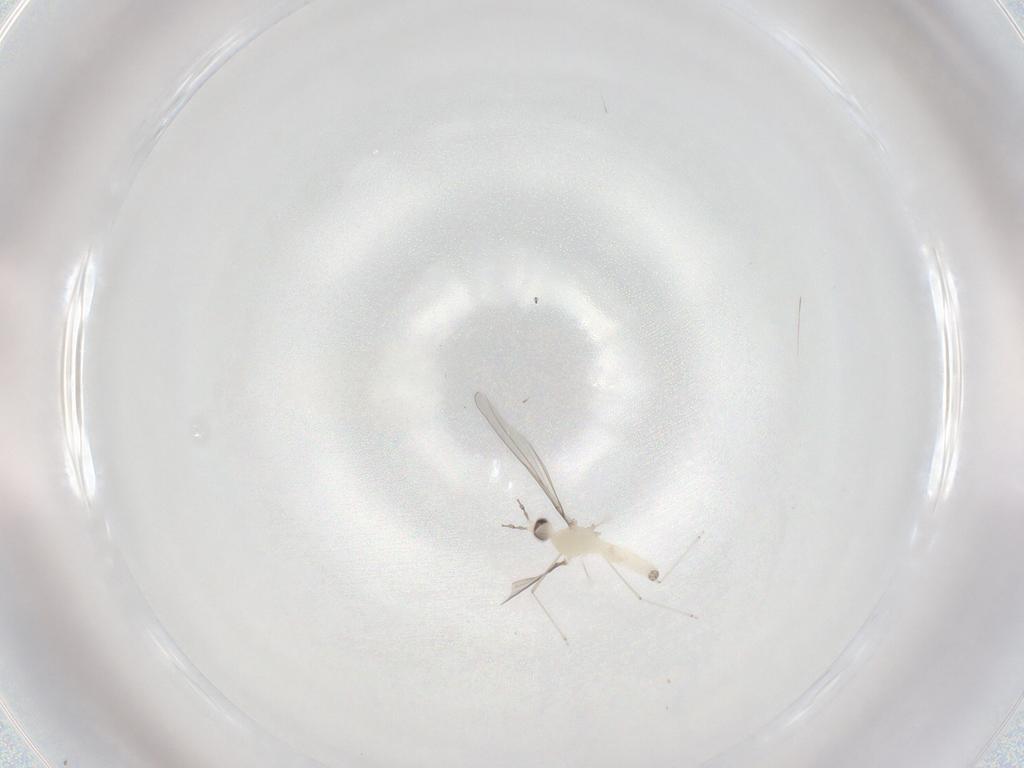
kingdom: Animalia
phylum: Arthropoda
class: Insecta
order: Diptera
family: Cecidomyiidae
